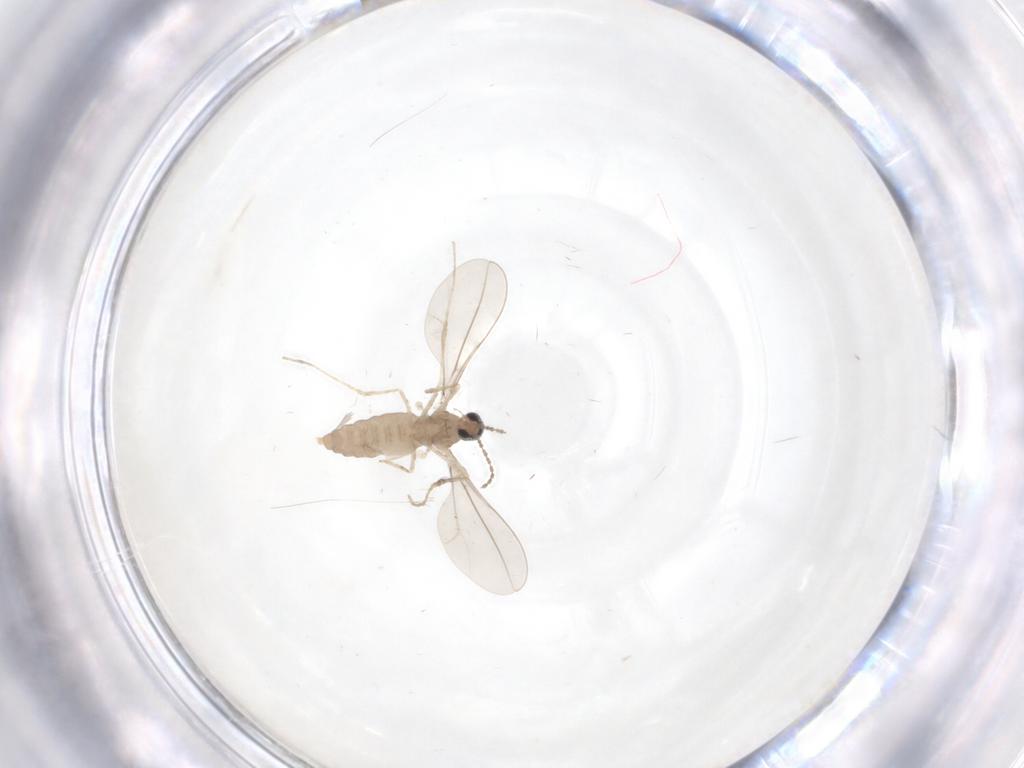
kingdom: Animalia
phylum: Arthropoda
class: Insecta
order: Diptera
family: Cecidomyiidae
